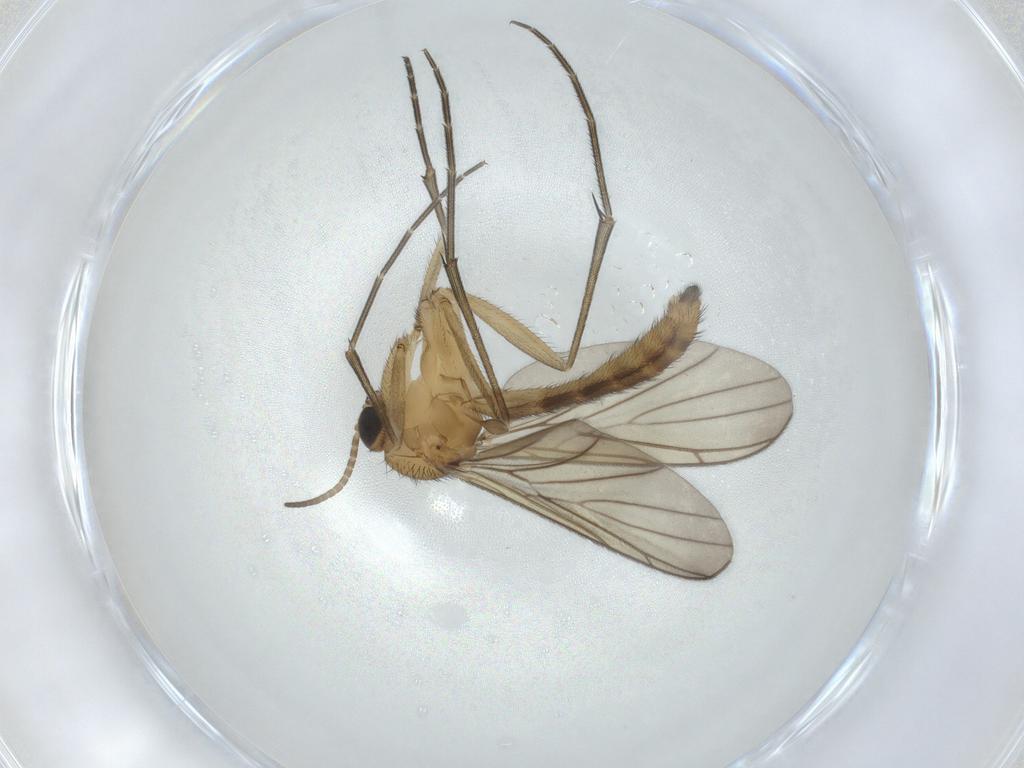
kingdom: Animalia
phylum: Arthropoda
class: Insecta
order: Diptera
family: Keroplatidae
